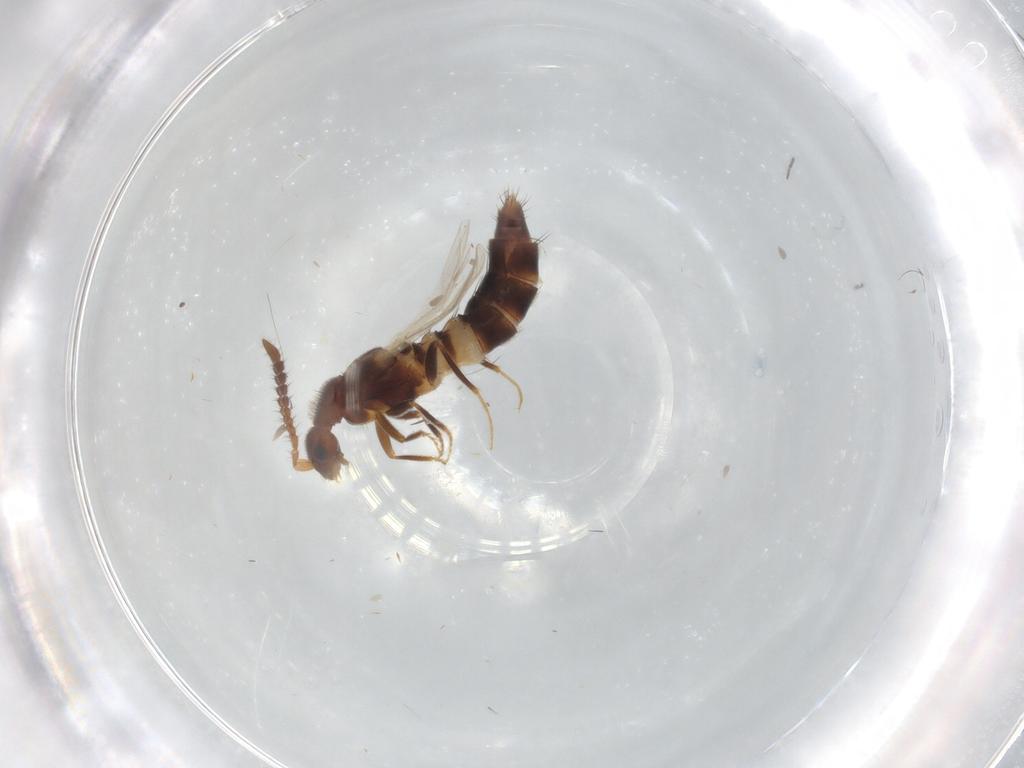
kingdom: Animalia
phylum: Arthropoda
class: Insecta
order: Coleoptera
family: Staphylinidae
